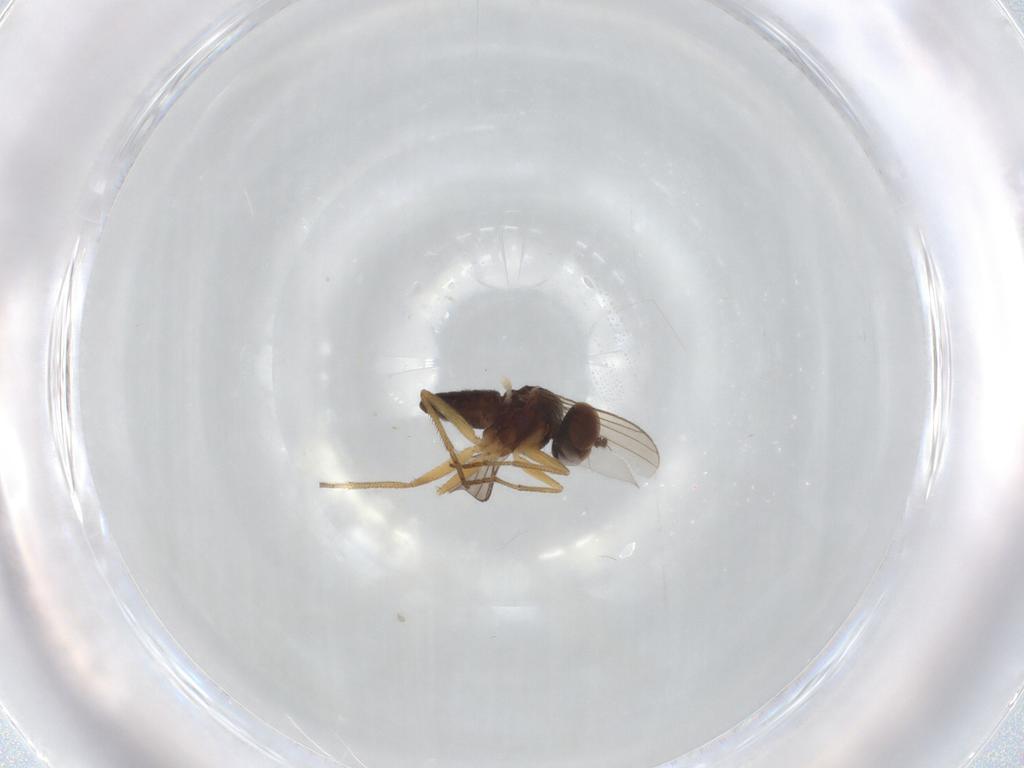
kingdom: Animalia
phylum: Arthropoda
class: Insecta
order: Diptera
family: Dolichopodidae
